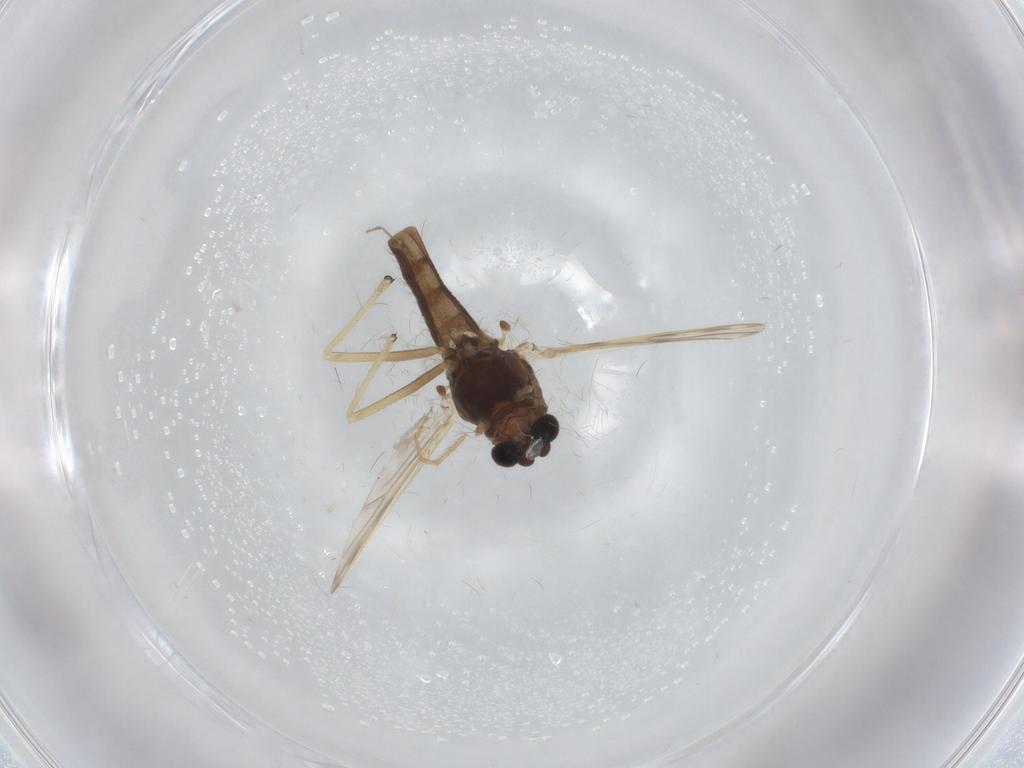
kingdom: Animalia
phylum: Arthropoda
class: Insecta
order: Diptera
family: Chironomidae
